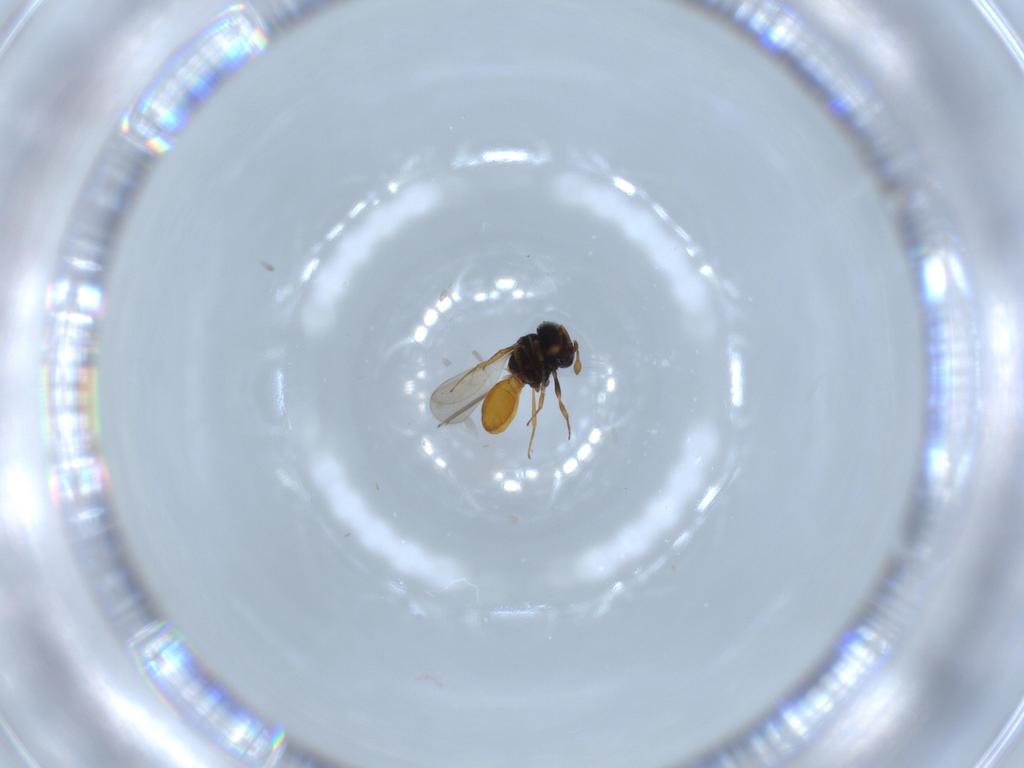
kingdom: Animalia
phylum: Arthropoda
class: Insecta
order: Hymenoptera
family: Scelionidae
